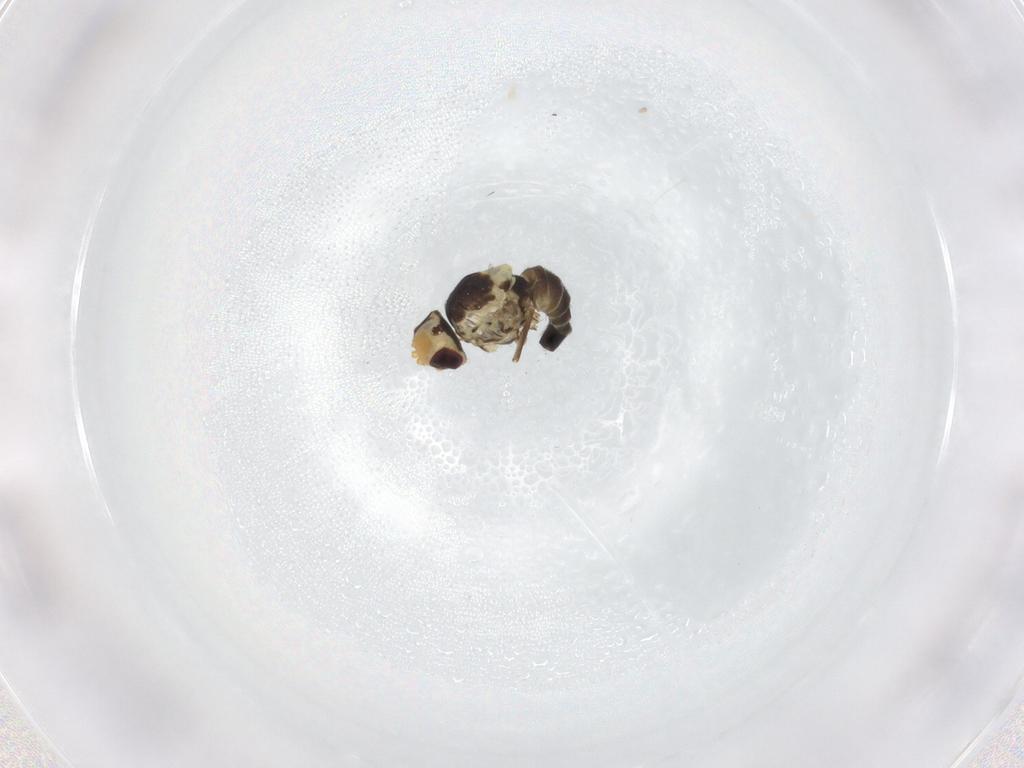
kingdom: Animalia
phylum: Arthropoda
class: Insecta
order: Diptera
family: Agromyzidae
